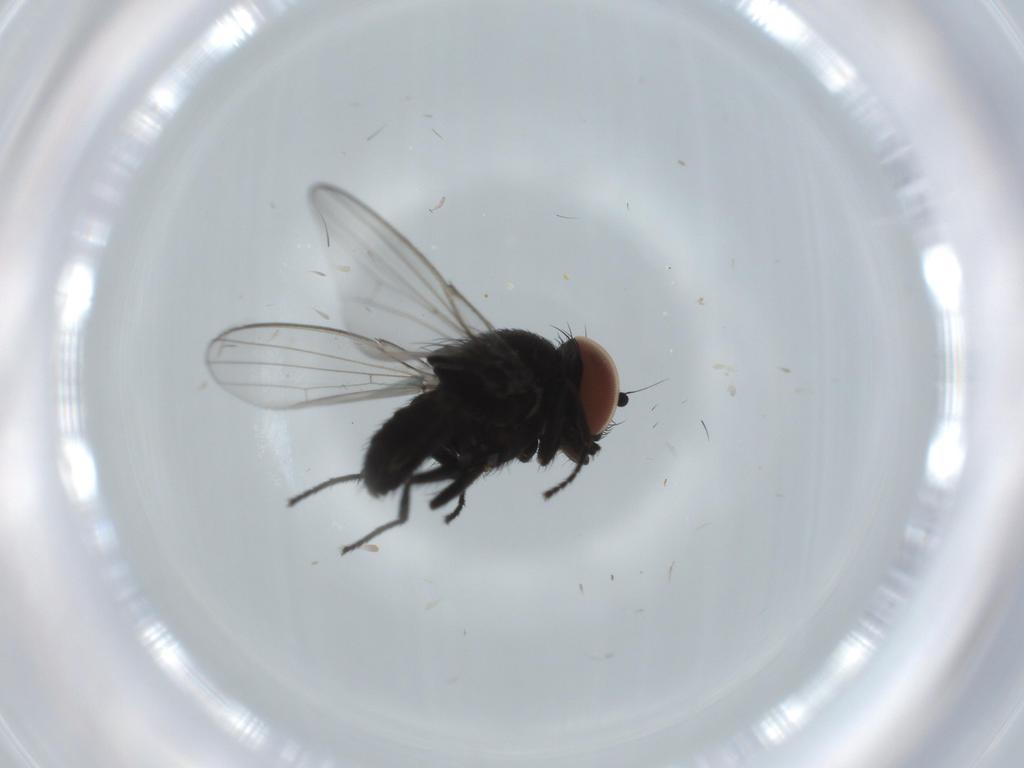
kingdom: Animalia
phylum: Arthropoda
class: Insecta
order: Diptera
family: Milichiidae
